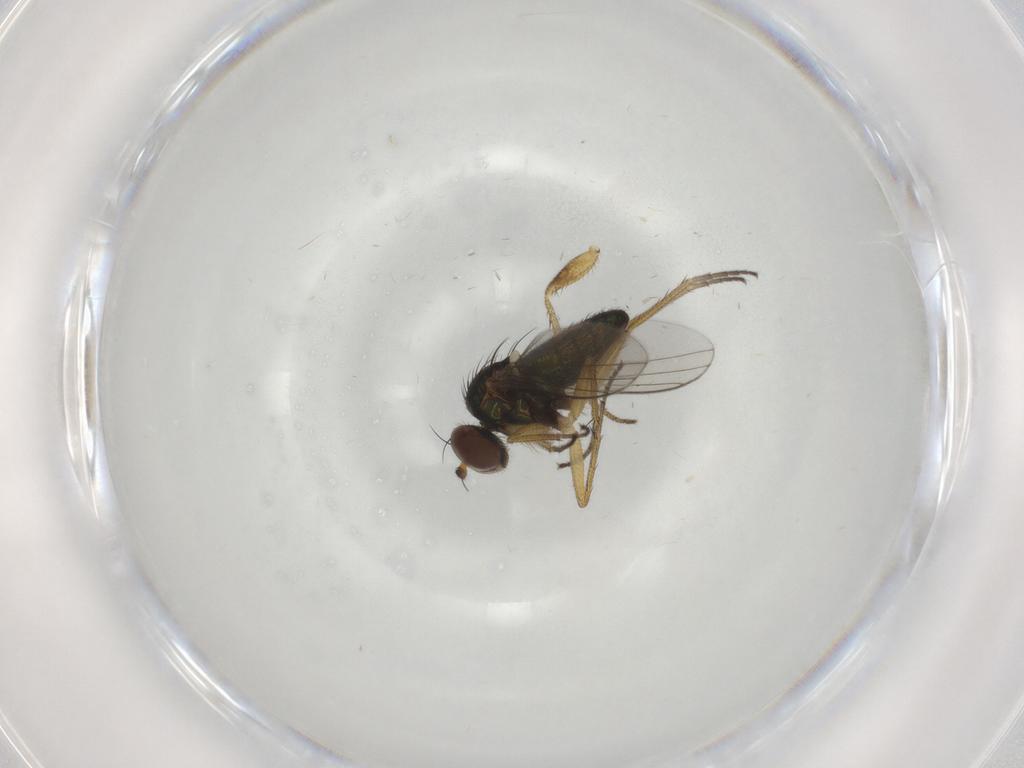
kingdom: Animalia
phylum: Arthropoda
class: Insecta
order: Diptera
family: Dolichopodidae
